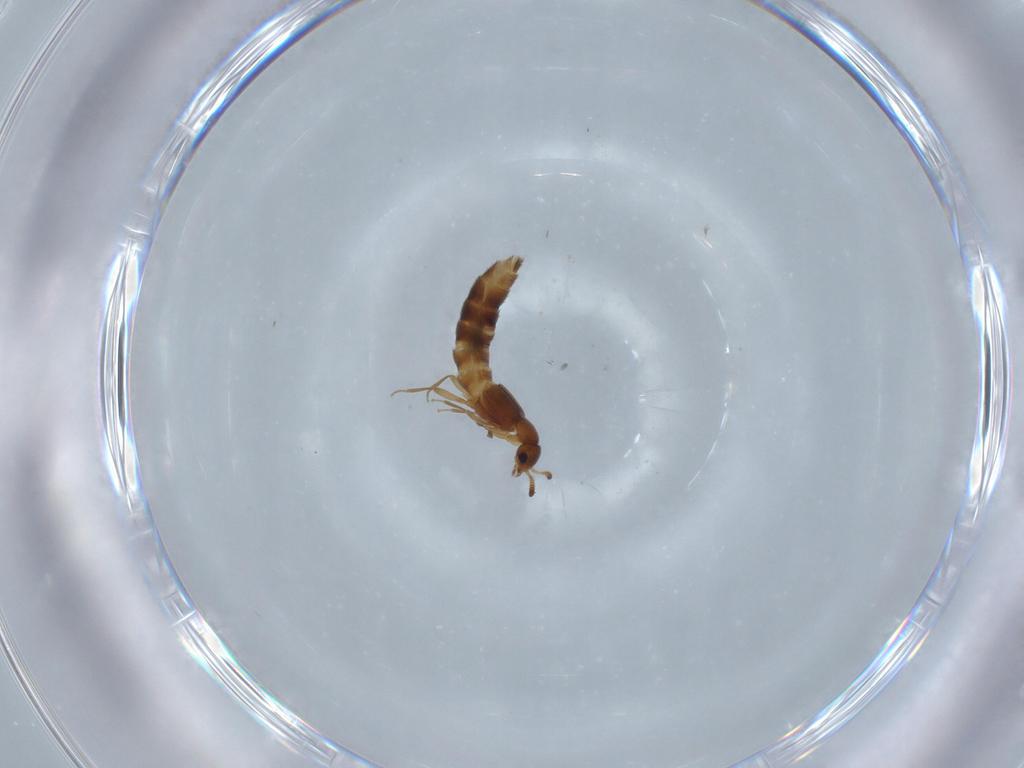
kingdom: Animalia
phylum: Arthropoda
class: Insecta
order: Coleoptera
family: Staphylinidae
